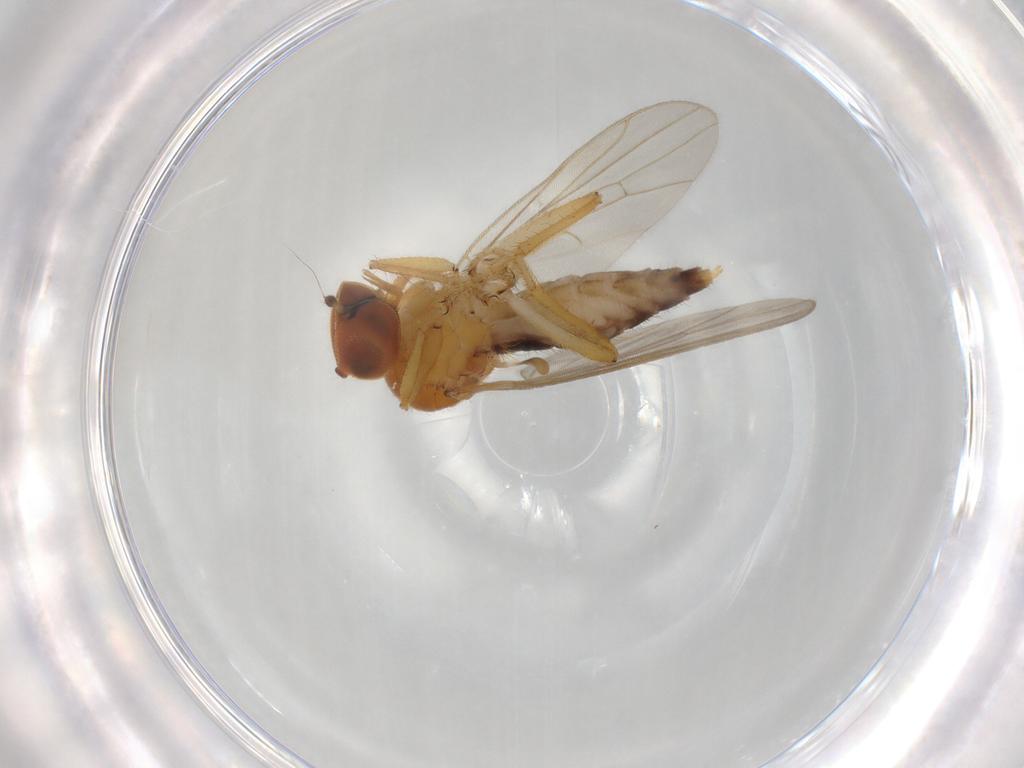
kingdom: Animalia
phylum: Arthropoda
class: Insecta
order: Diptera
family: Hybotidae
